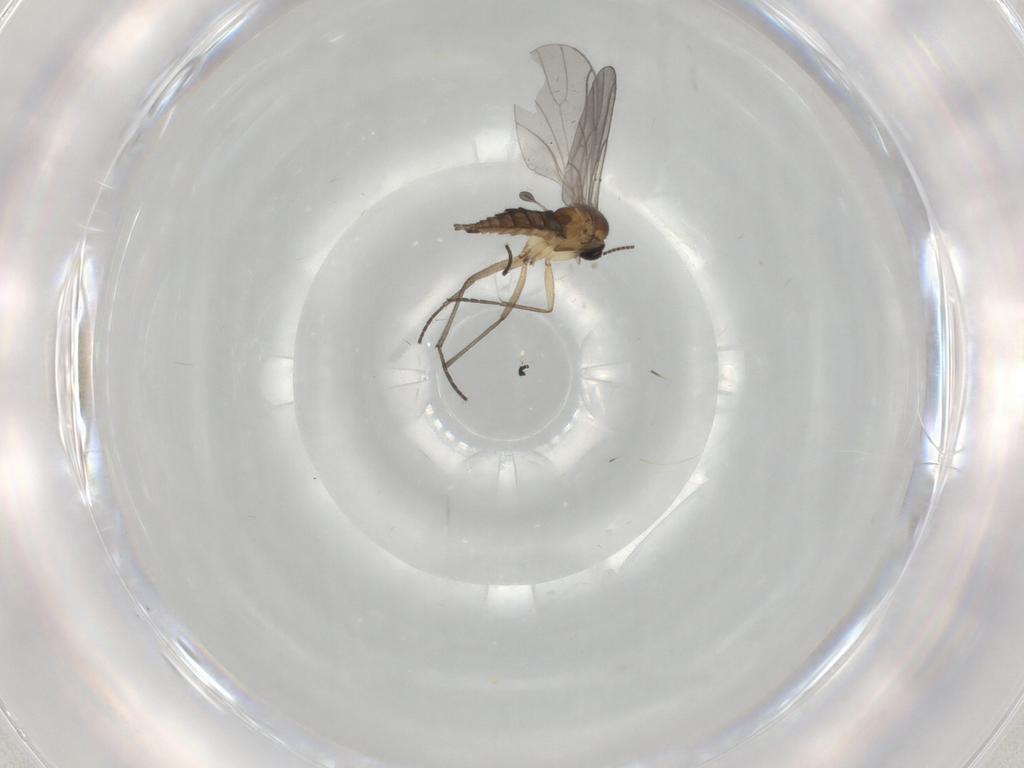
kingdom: Animalia
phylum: Arthropoda
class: Insecta
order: Diptera
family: Sciaridae
